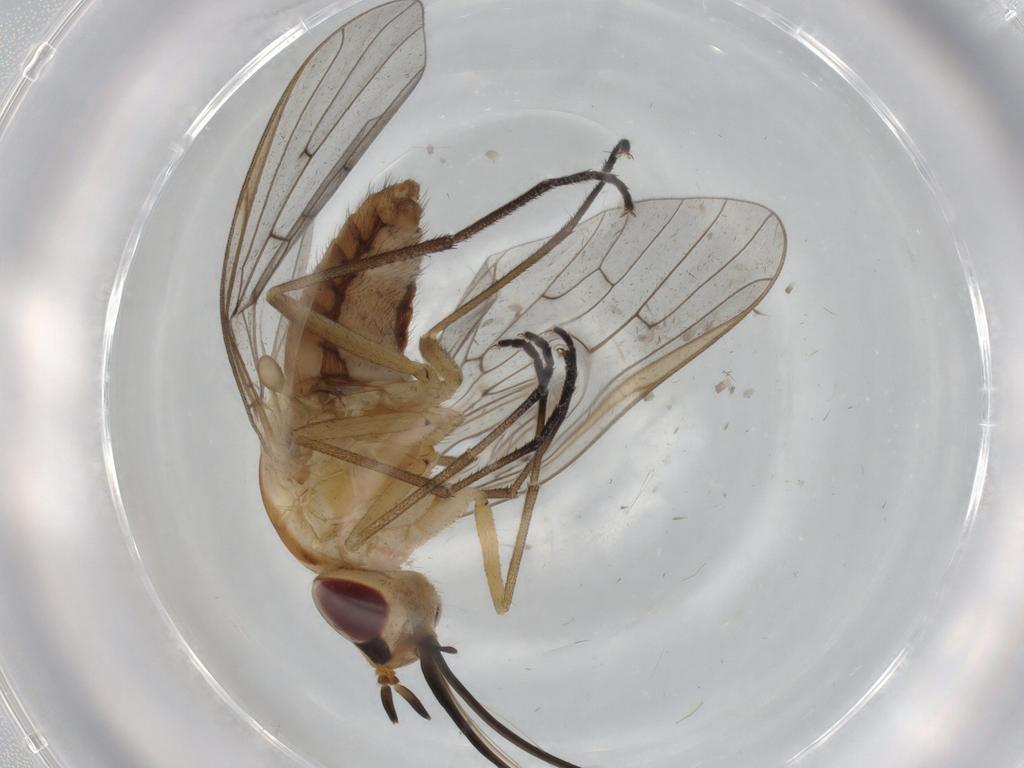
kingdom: Animalia
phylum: Arthropoda
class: Insecta
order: Diptera
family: Bombyliidae
